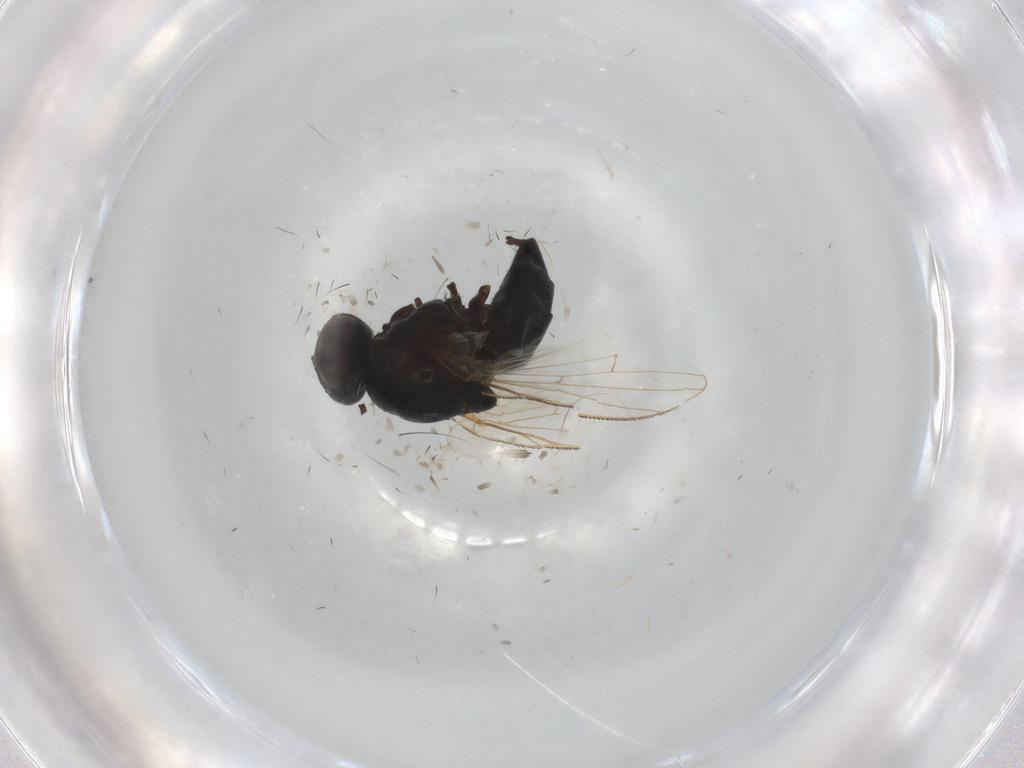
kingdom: Animalia
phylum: Arthropoda
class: Insecta
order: Diptera
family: Muscidae
